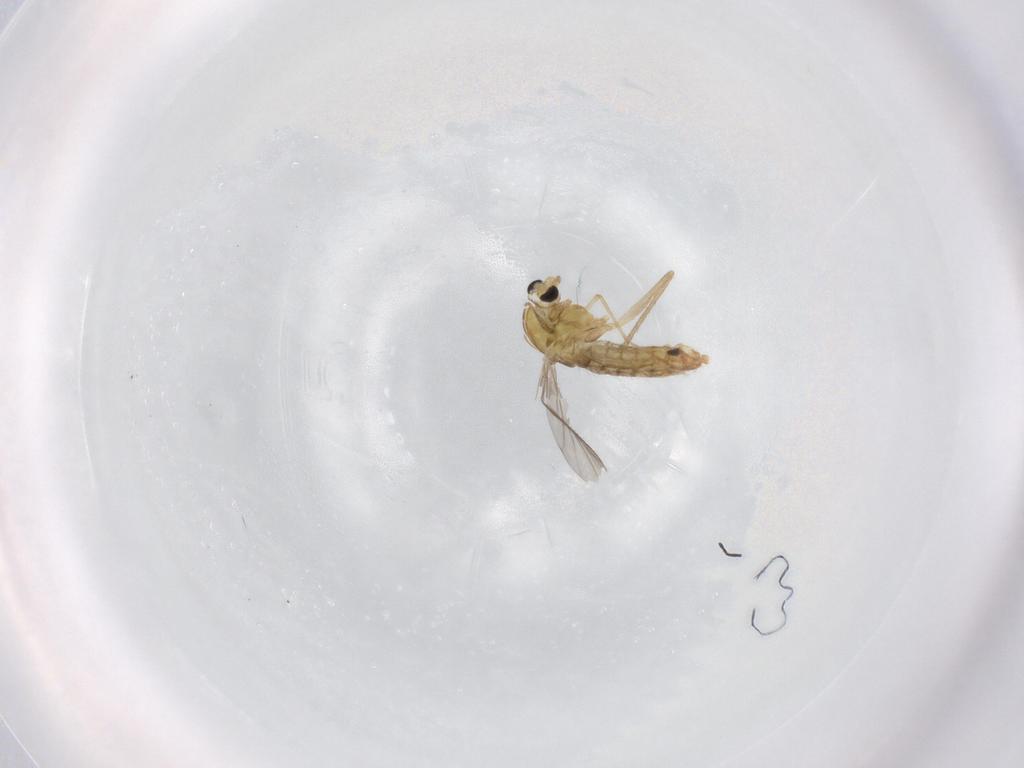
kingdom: Animalia
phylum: Arthropoda
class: Insecta
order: Diptera
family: Chironomidae
